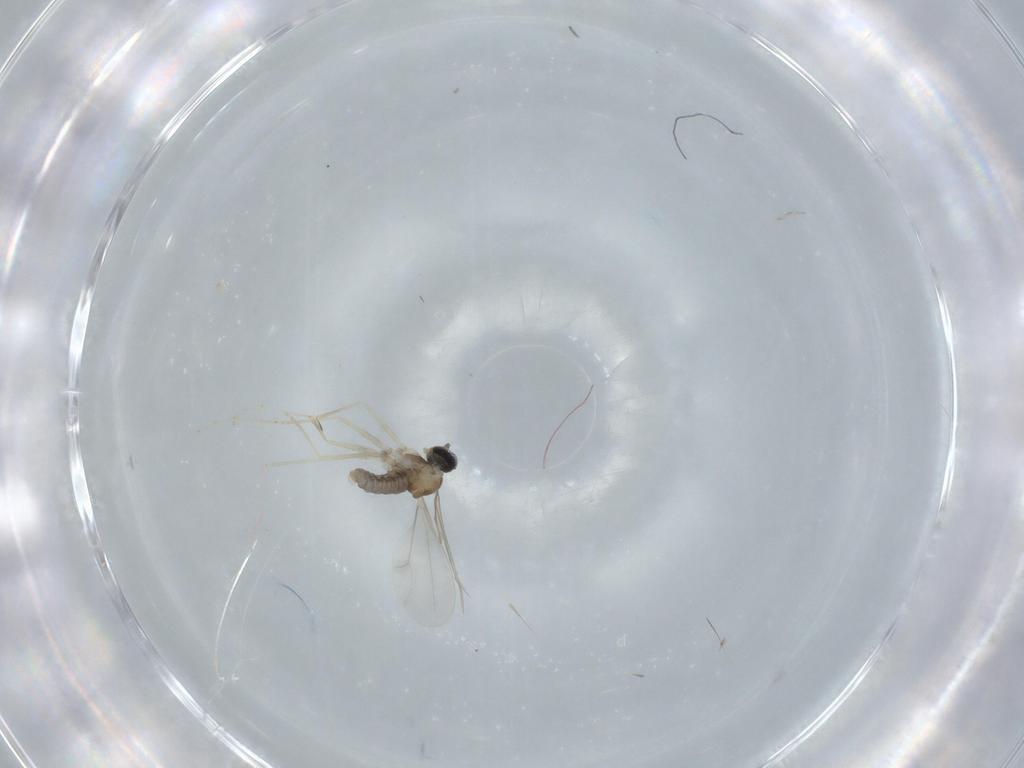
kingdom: Animalia
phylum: Arthropoda
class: Insecta
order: Diptera
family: Cecidomyiidae
